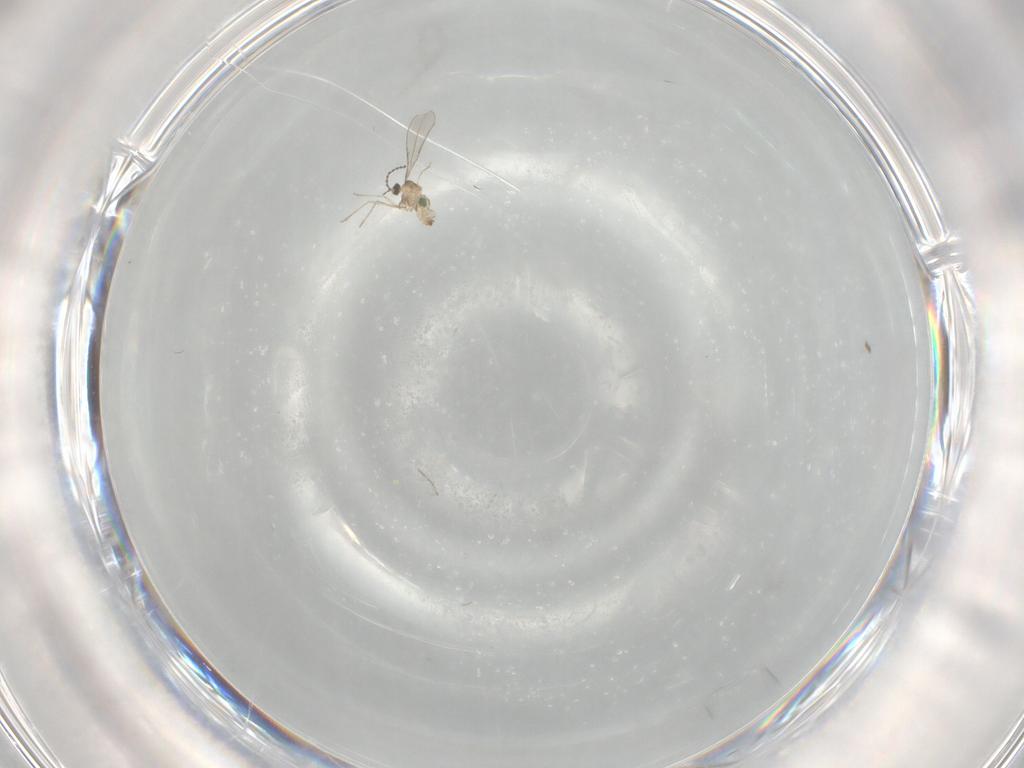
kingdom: Animalia
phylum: Arthropoda
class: Insecta
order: Diptera
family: Cecidomyiidae
